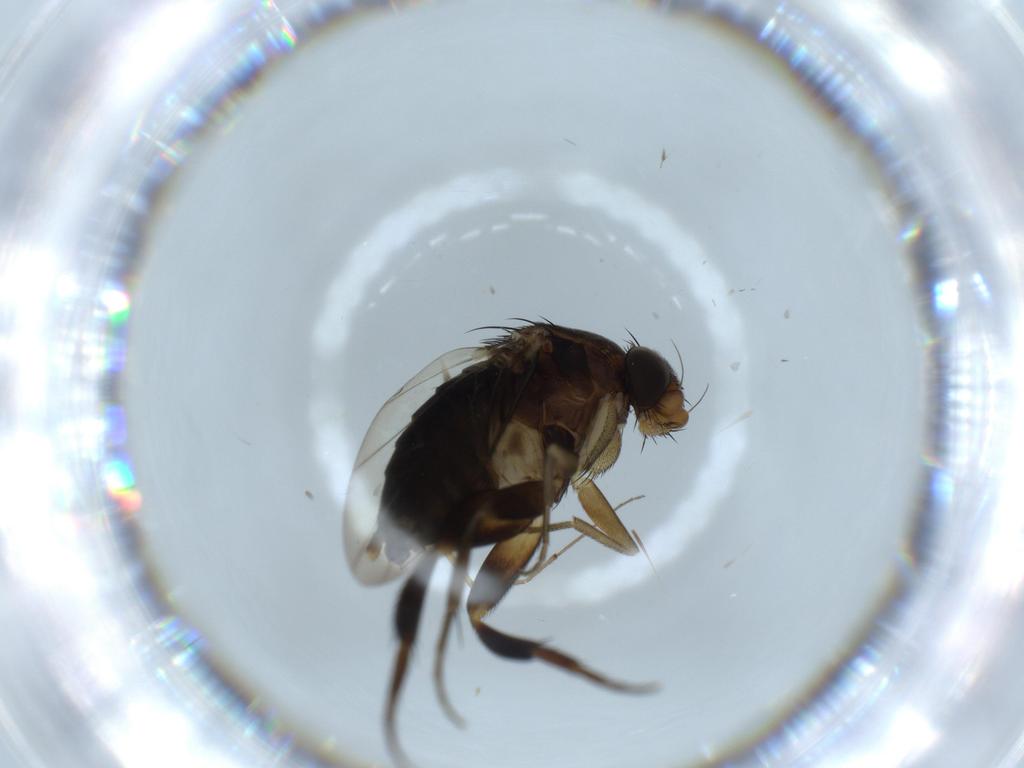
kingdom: Animalia
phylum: Arthropoda
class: Insecta
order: Diptera
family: Phoridae
